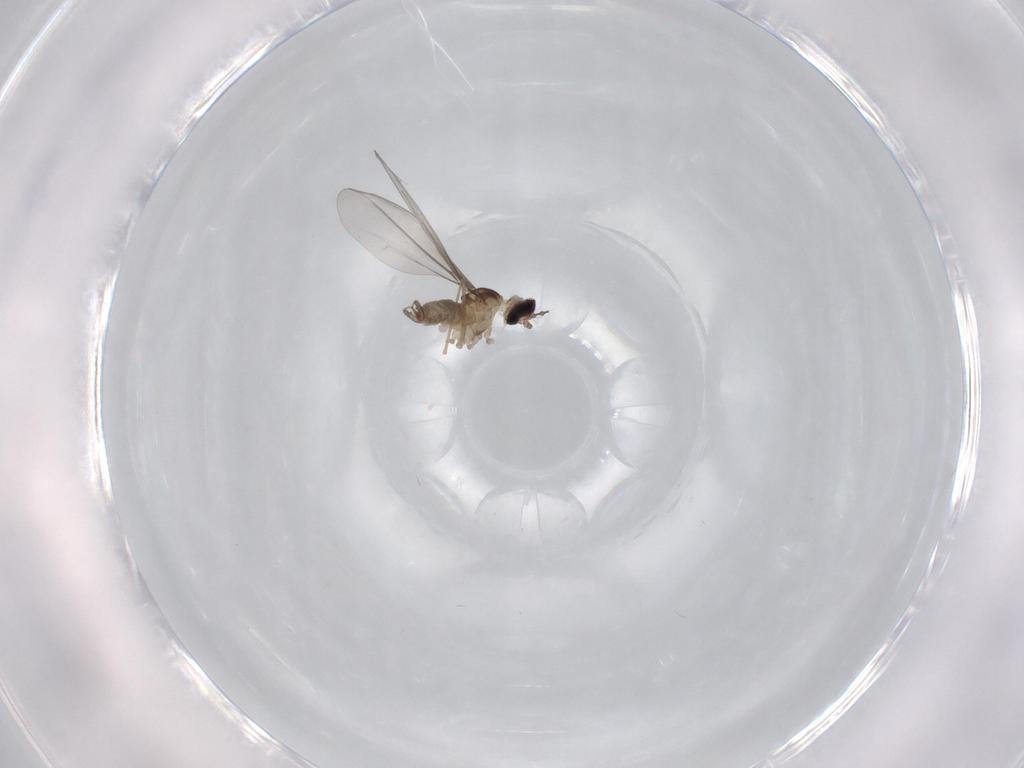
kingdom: Animalia
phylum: Arthropoda
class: Insecta
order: Diptera
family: Cecidomyiidae
